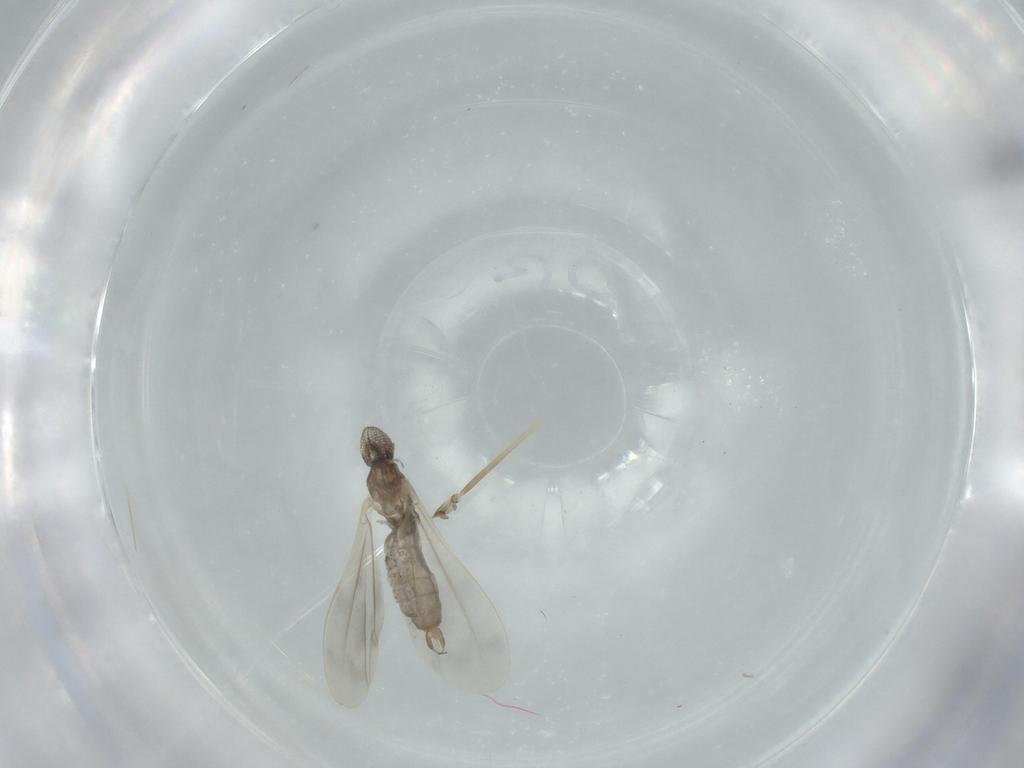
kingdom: Animalia
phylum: Arthropoda
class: Insecta
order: Diptera
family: Cecidomyiidae
